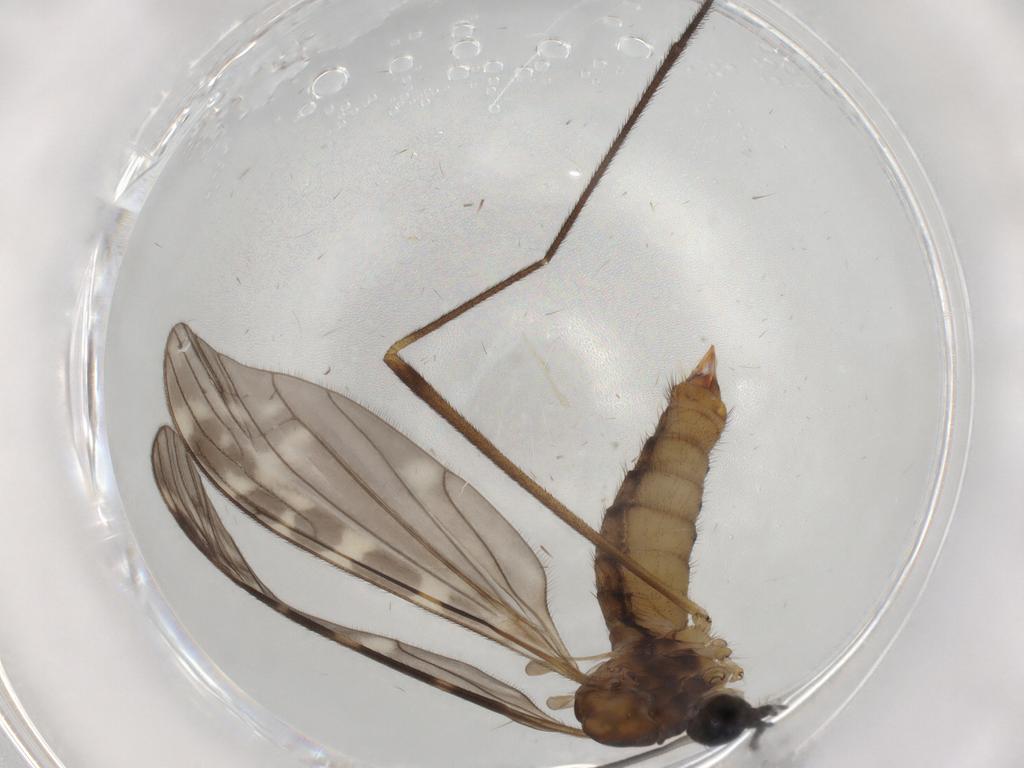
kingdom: Animalia
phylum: Arthropoda
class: Insecta
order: Diptera
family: Limoniidae
